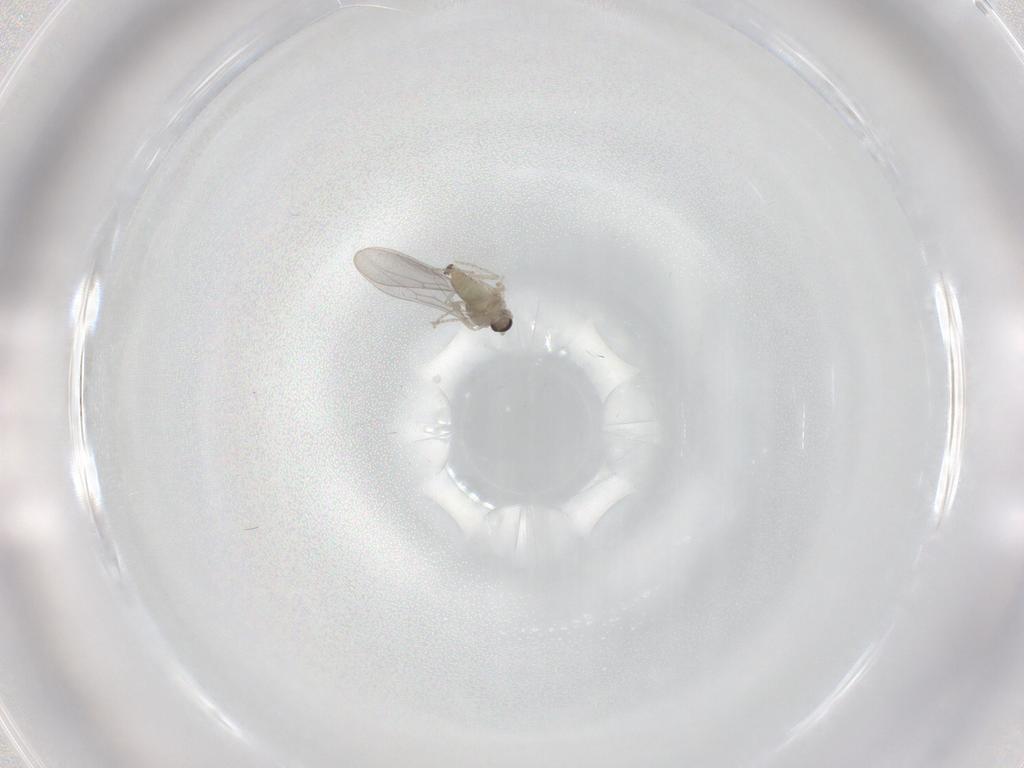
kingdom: Animalia
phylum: Arthropoda
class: Insecta
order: Diptera
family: Cecidomyiidae
